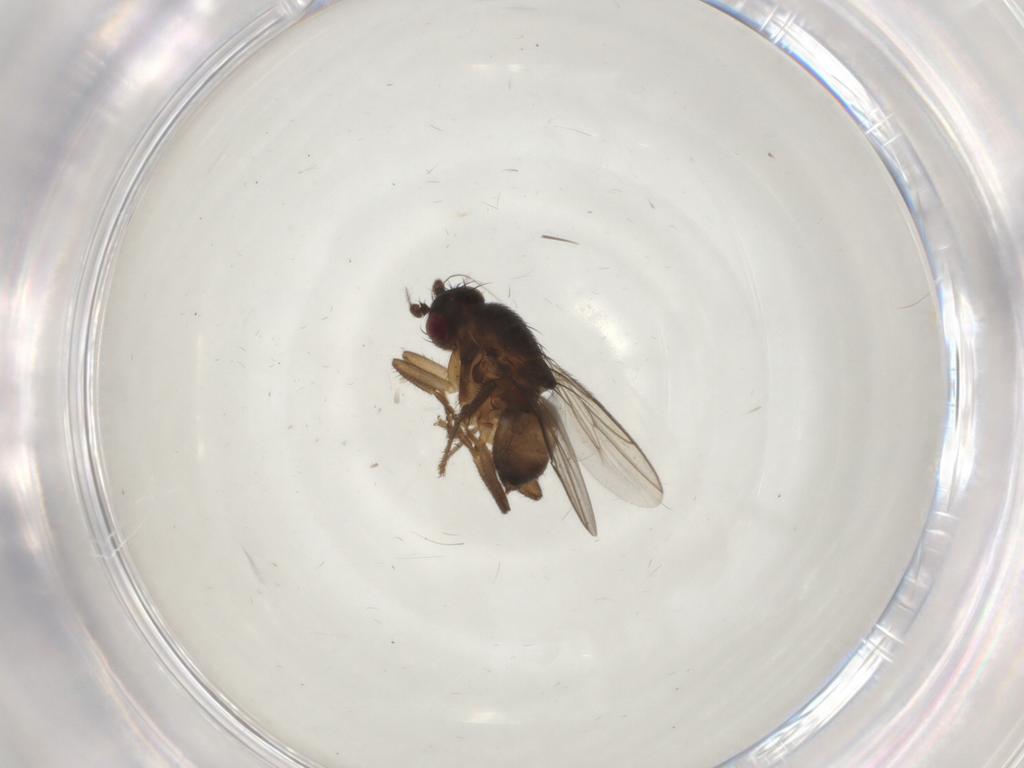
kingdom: Animalia
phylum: Arthropoda
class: Insecta
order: Diptera
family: Sphaeroceridae
